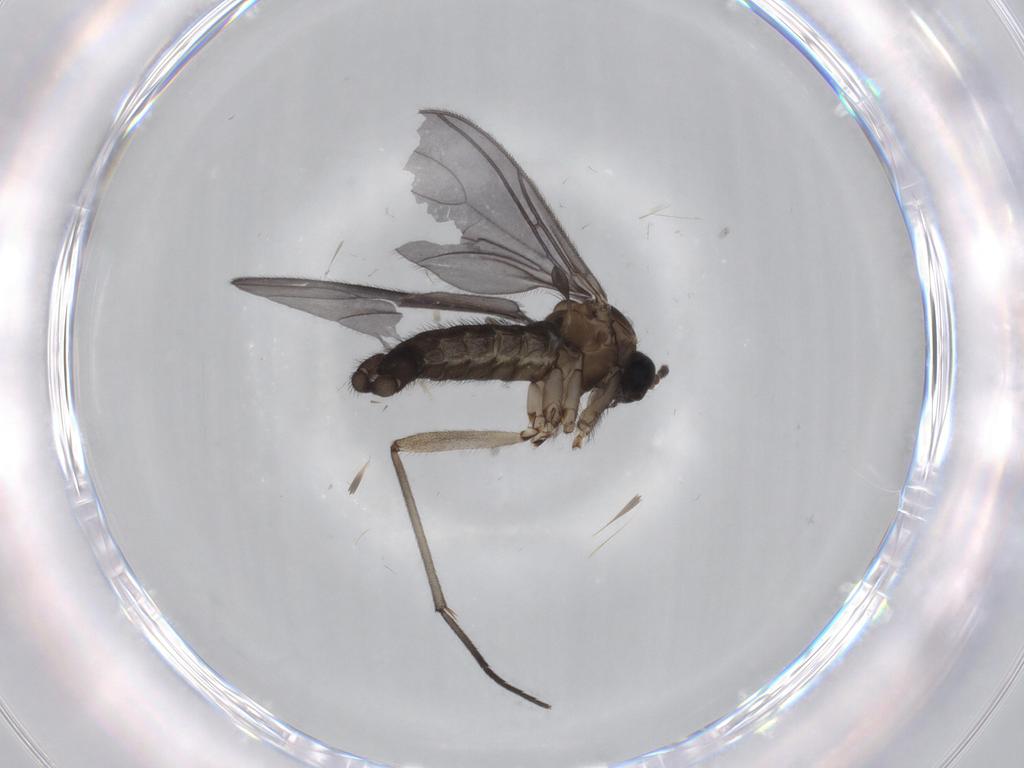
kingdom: Animalia
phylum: Arthropoda
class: Insecta
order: Diptera
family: Sciaridae
